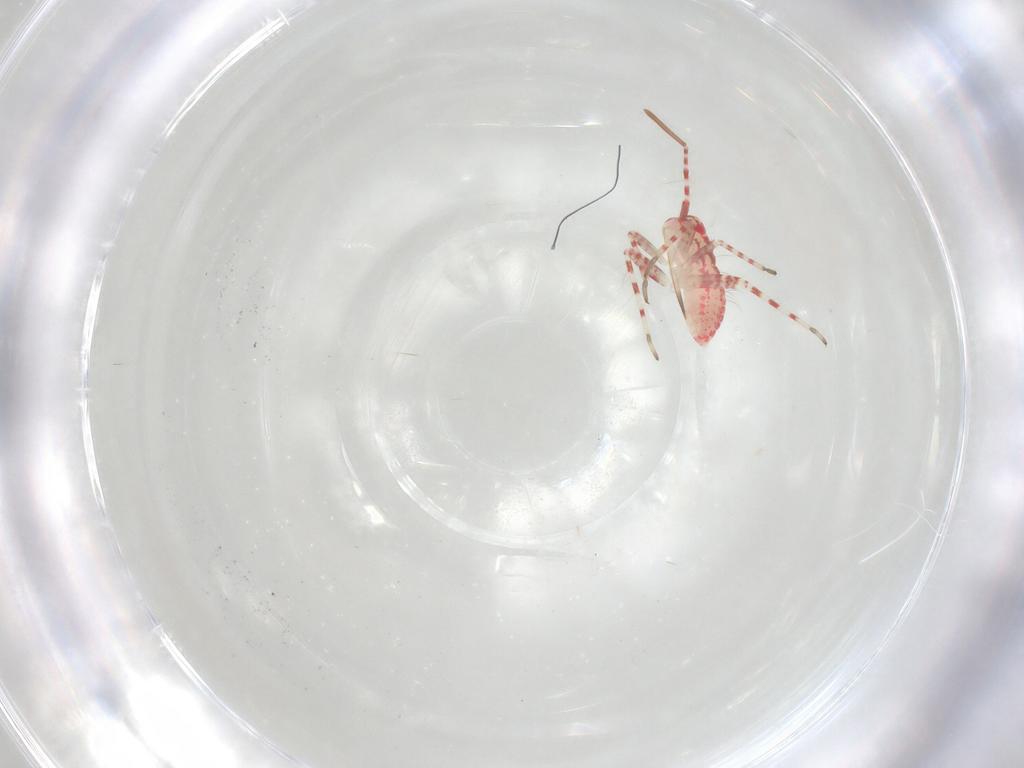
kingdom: Animalia
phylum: Arthropoda
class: Insecta
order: Hemiptera
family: Miridae
